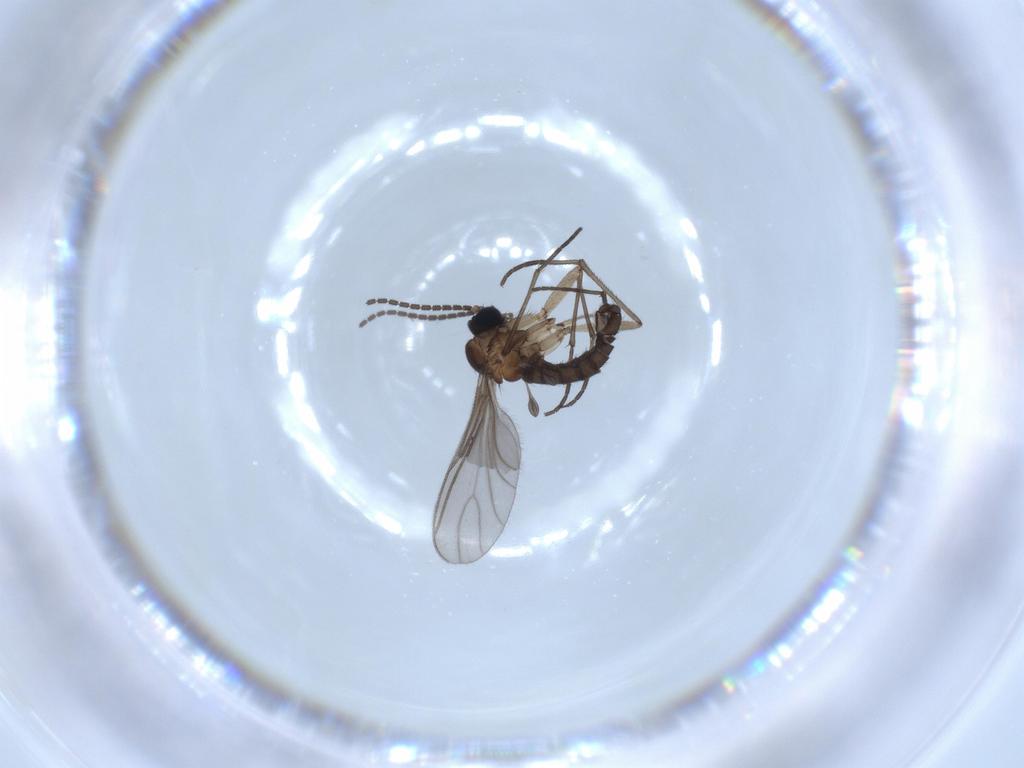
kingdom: Animalia
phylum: Arthropoda
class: Insecta
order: Diptera
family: Sciaridae
